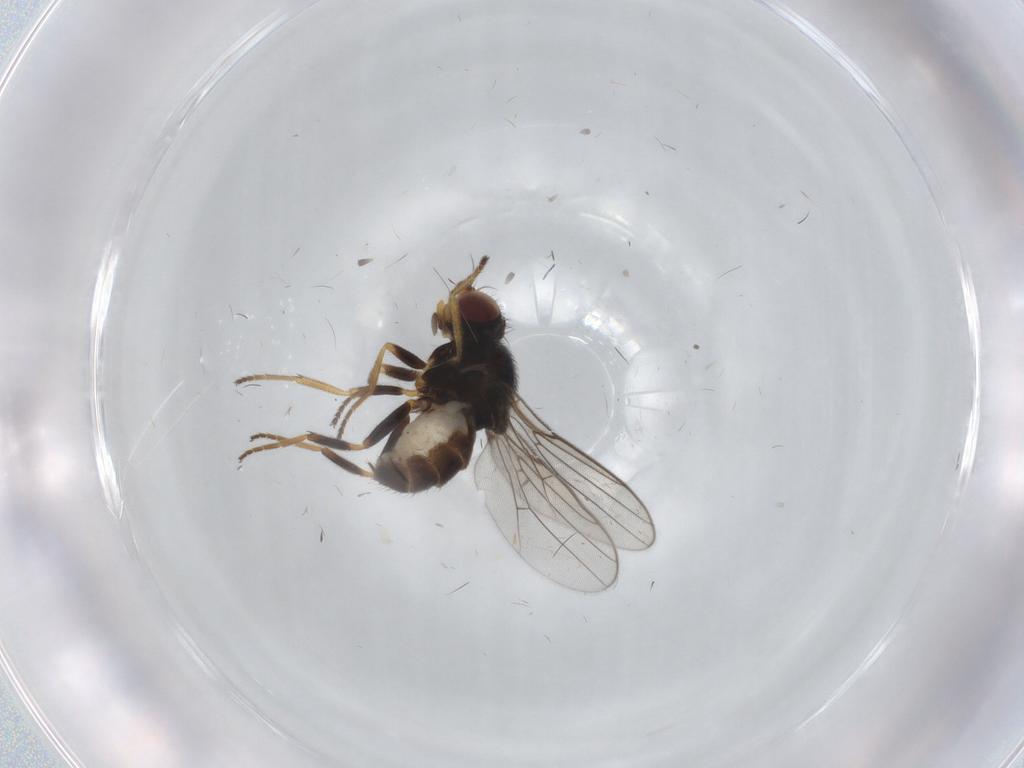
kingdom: Animalia
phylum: Arthropoda
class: Insecta
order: Diptera
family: Chloropidae
